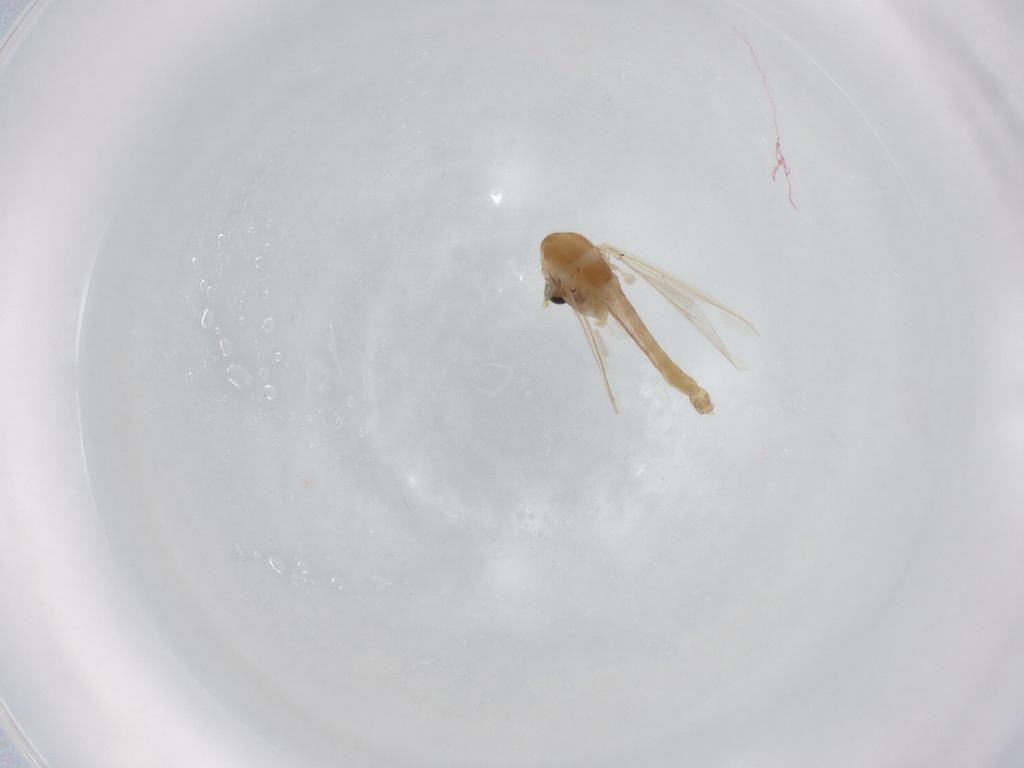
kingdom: Animalia
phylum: Arthropoda
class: Insecta
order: Diptera
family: Chironomidae
